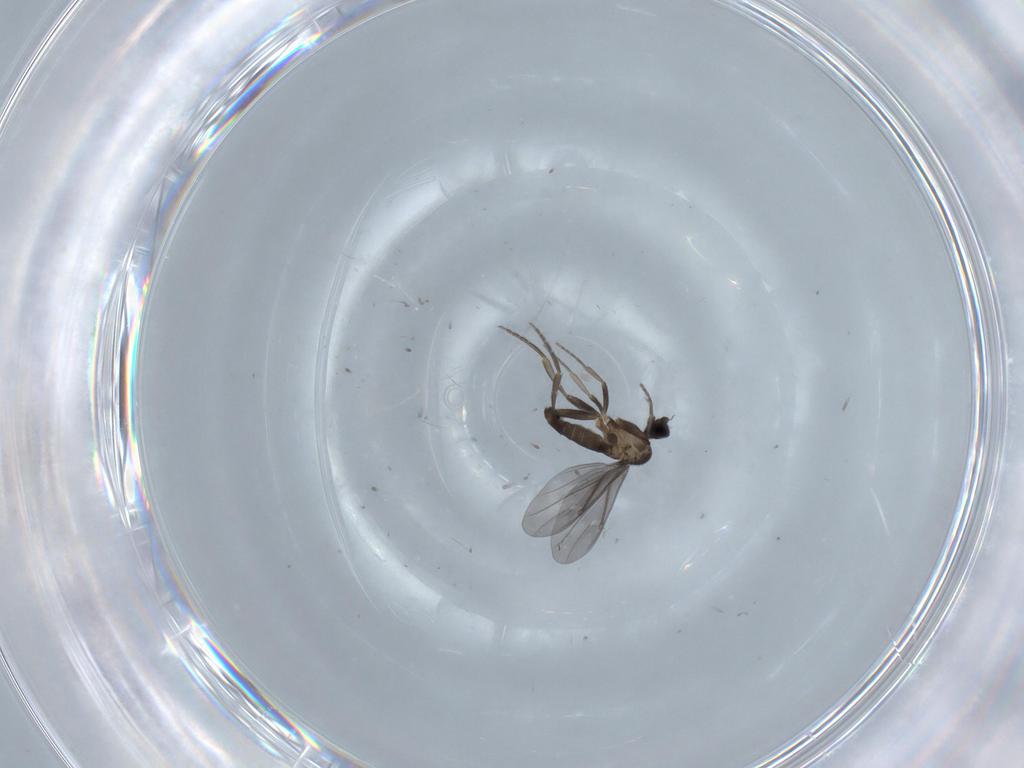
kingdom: Animalia
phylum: Arthropoda
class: Insecta
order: Diptera
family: Phoridae
